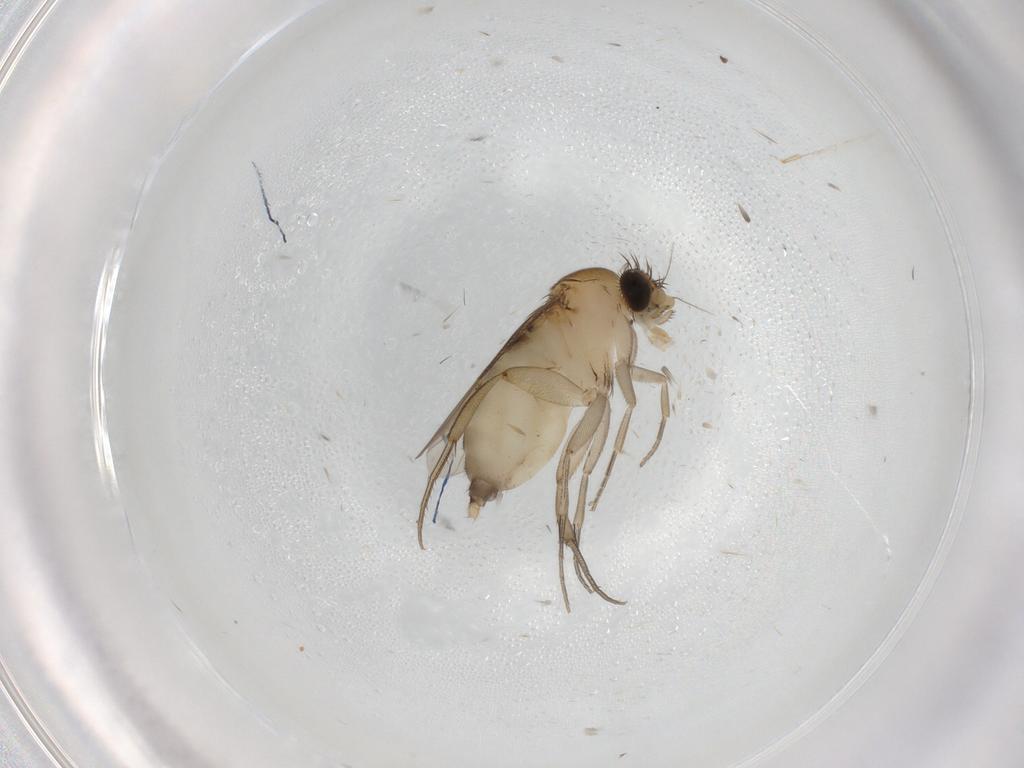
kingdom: Animalia
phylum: Arthropoda
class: Insecta
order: Diptera
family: Phoridae
